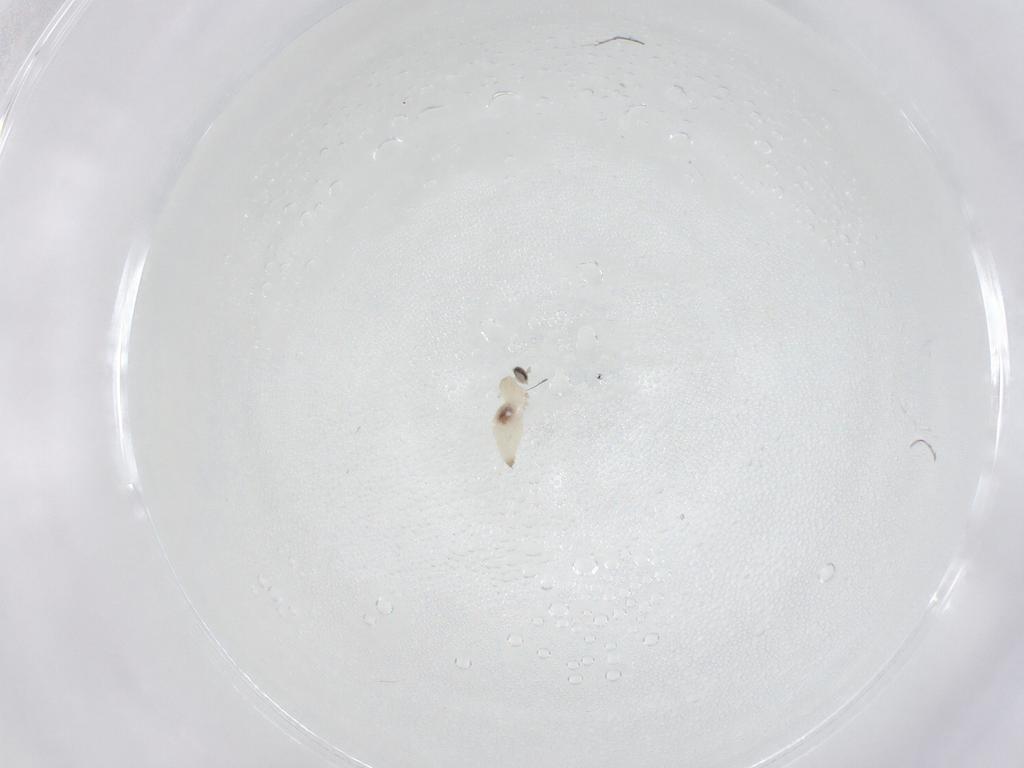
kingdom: Animalia
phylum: Arthropoda
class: Insecta
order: Diptera
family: Cecidomyiidae
